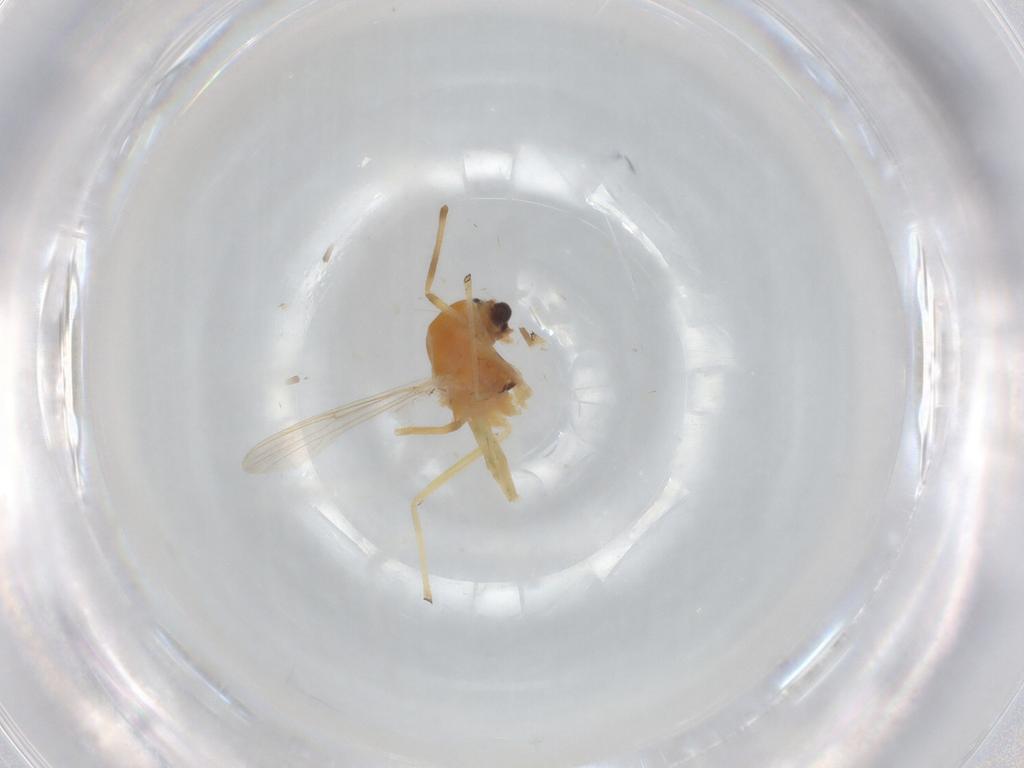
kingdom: Animalia
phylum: Arthropoda
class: Insecta
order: Diptera
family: Chironomidae
